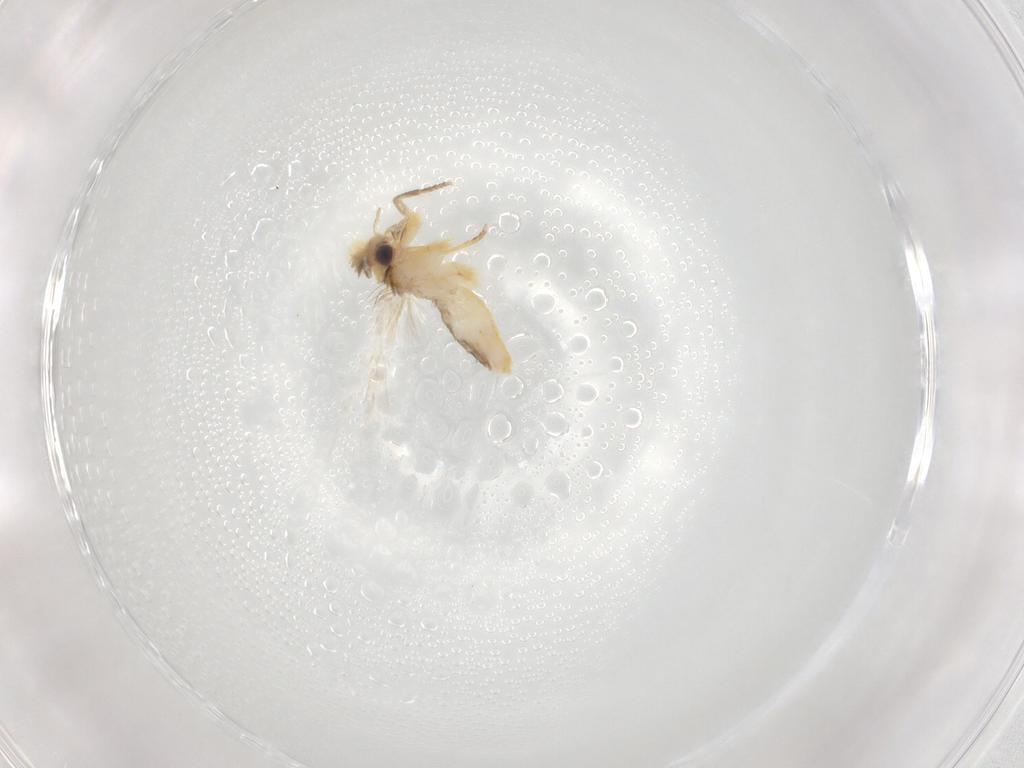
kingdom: Animalia
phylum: Arthropoda
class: Insecta
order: Lepidoptera
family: Nepticulidae
